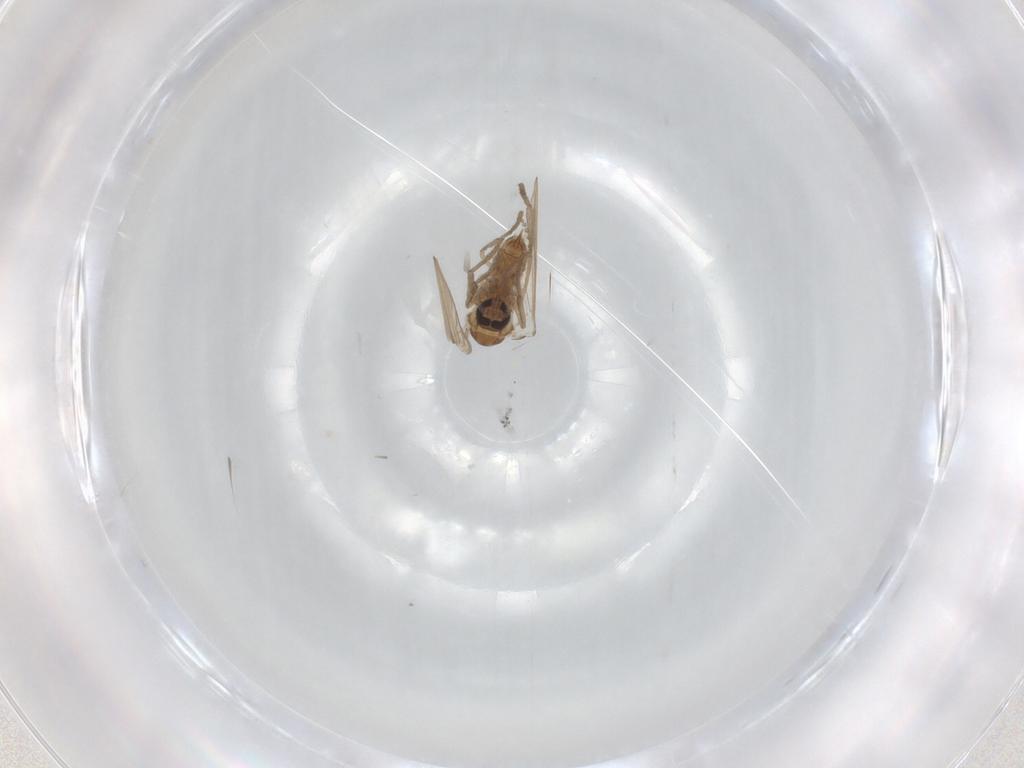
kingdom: Animalia
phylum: Arthropoda
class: Insecta
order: Diptera
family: Psychodidae
